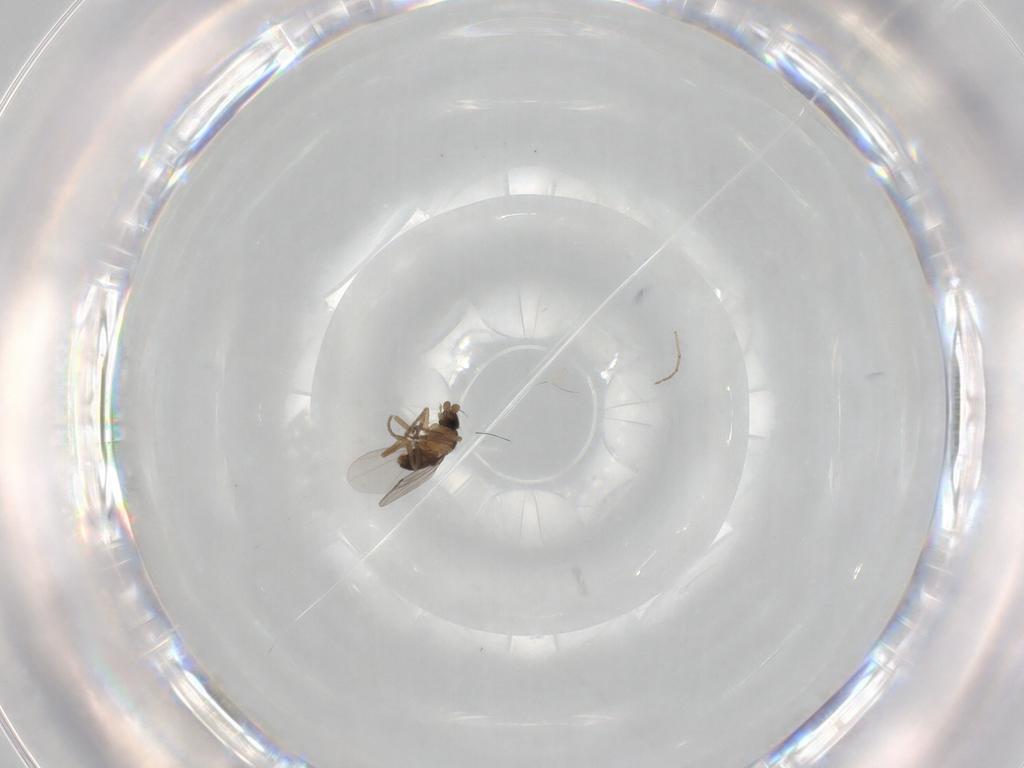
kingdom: Animalia
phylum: Arthropoda
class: Insecta
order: Diptera
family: Phoridae
